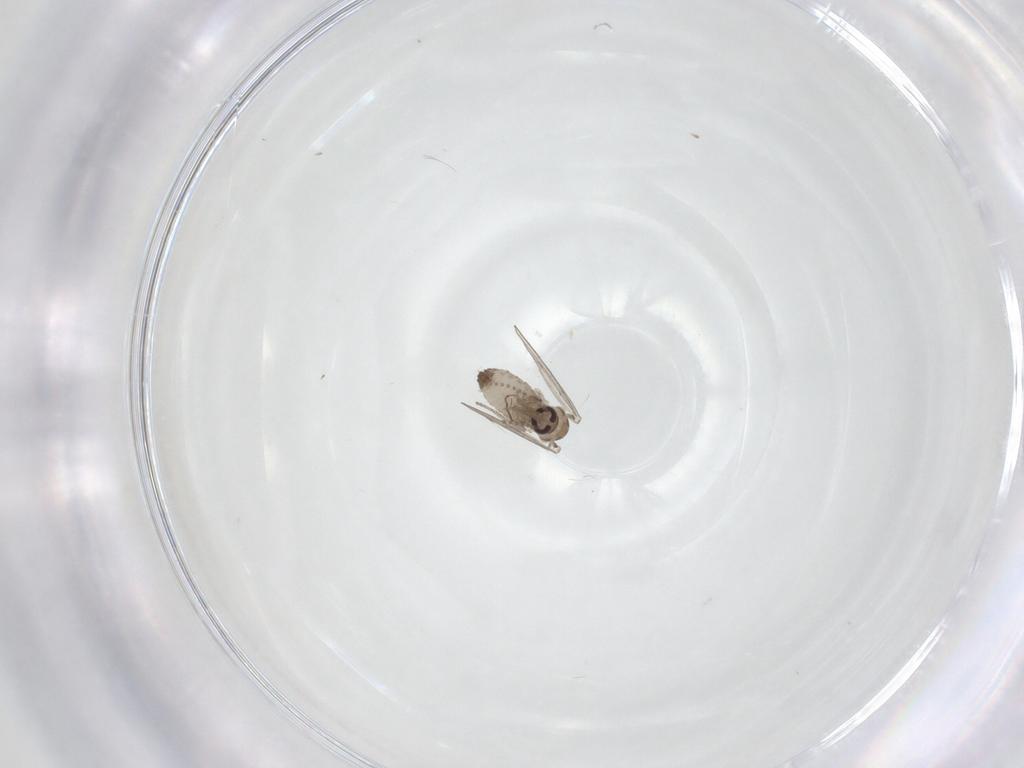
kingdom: Animalia
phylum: Arthropoda
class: Insecta
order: Diptera
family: Psychodidae
